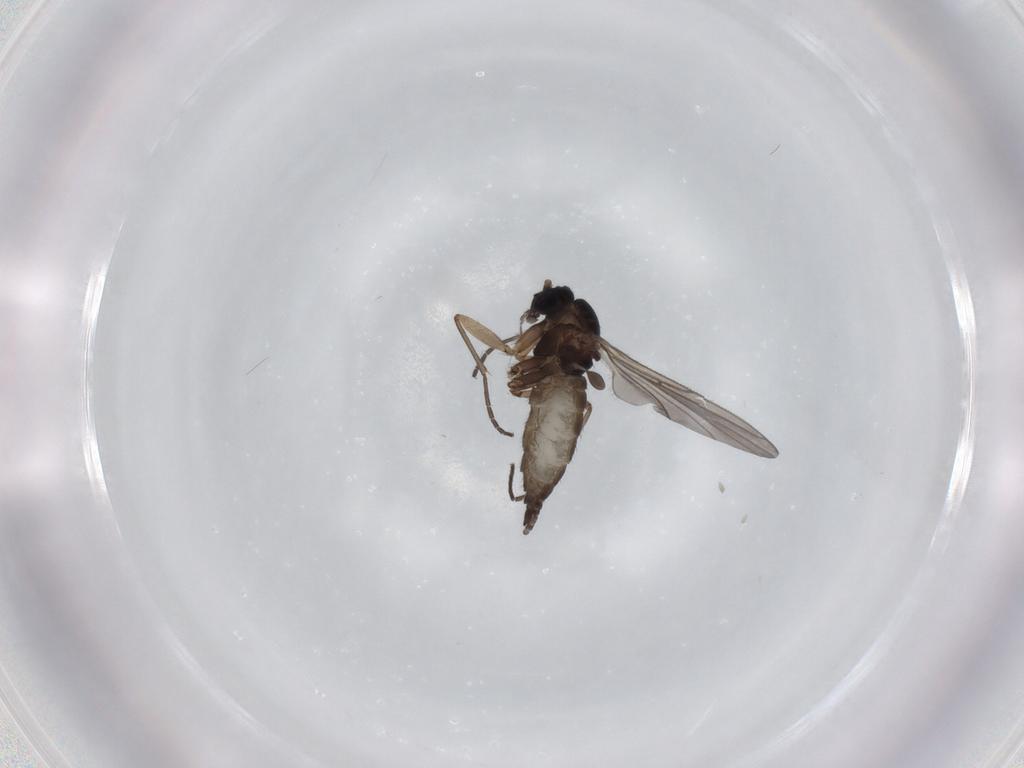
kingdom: Animalia
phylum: Arthropoda
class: Insecta
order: Diptera
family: Sciaridae
